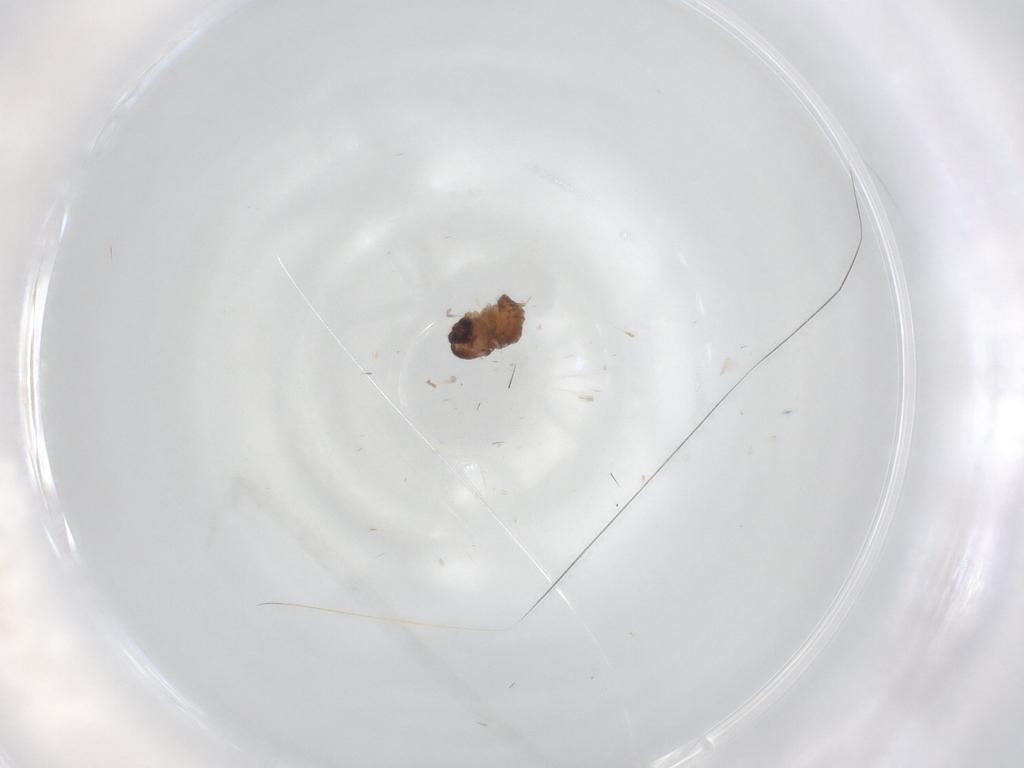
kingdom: Animalia
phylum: Arthropoda
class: Insecta
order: Diptera
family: Psychodidae
